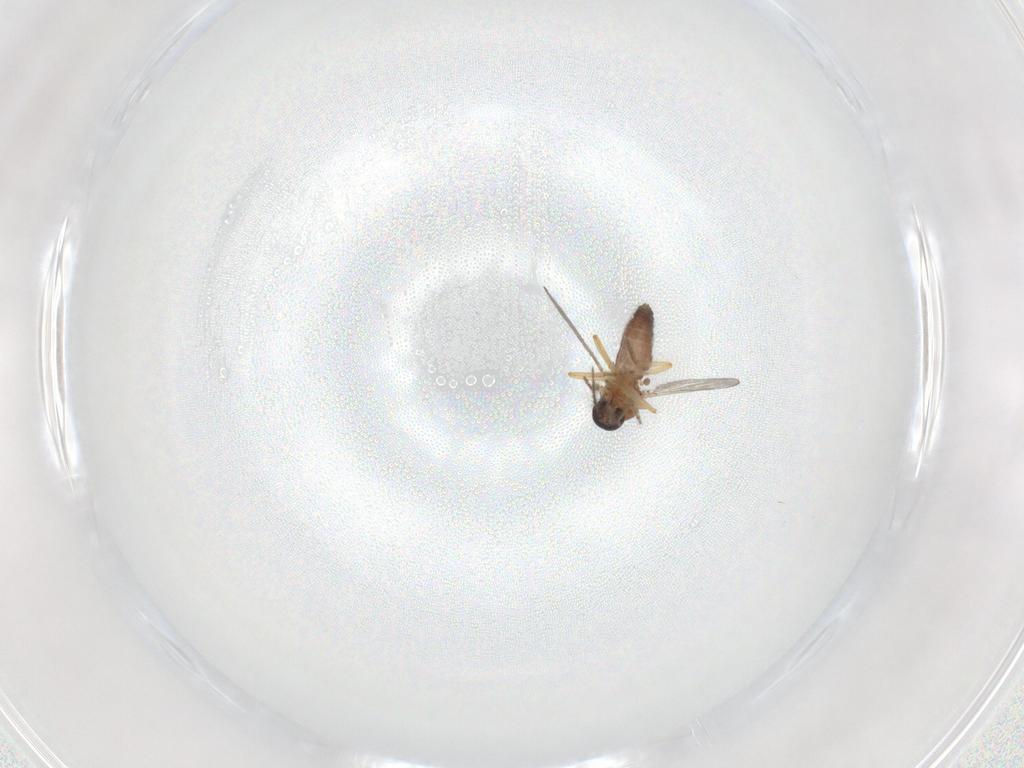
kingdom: Animalia
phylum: Arthropoda
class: Insecta
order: Diptera
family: Ceratopogonidae
